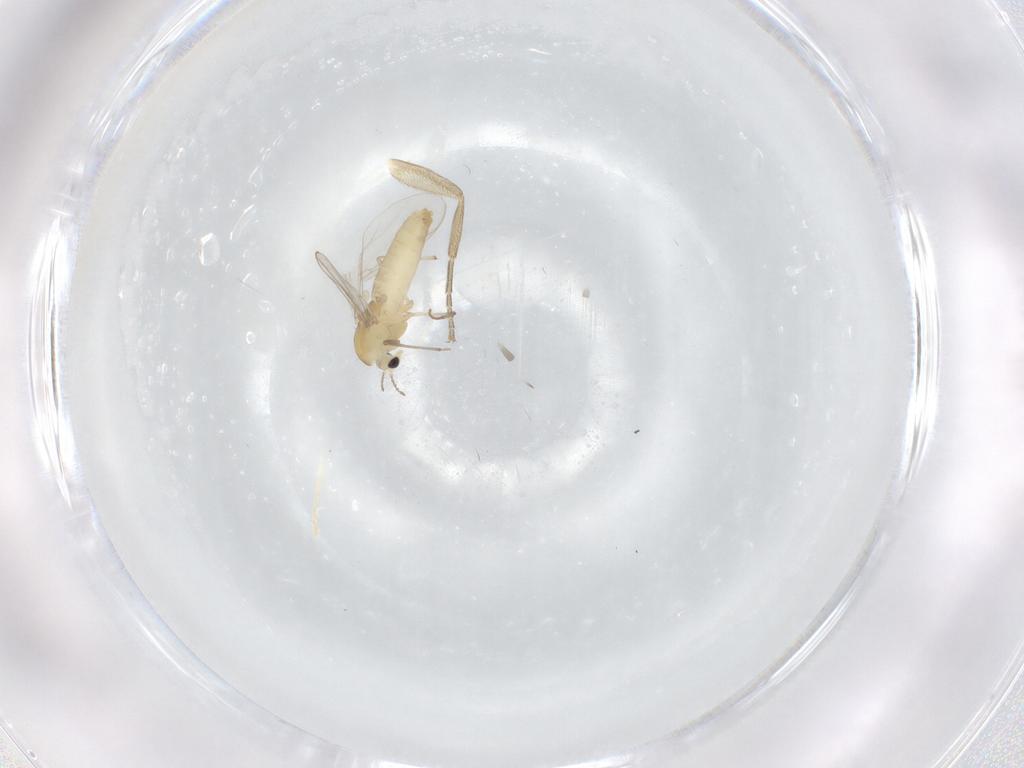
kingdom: Animalia
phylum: Arthropoda
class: Insecta
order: Diptera
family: Chironomidae
